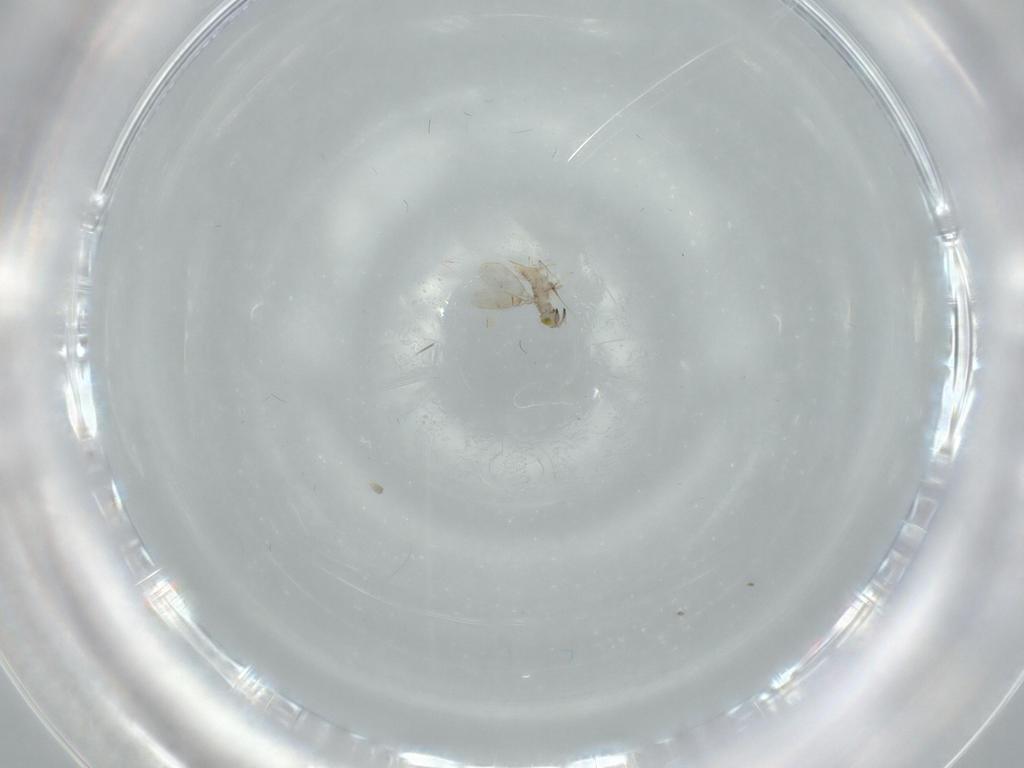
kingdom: Animalia
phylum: Arthropoda
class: Insecta
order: Hymenoptera
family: Aphelinidae
